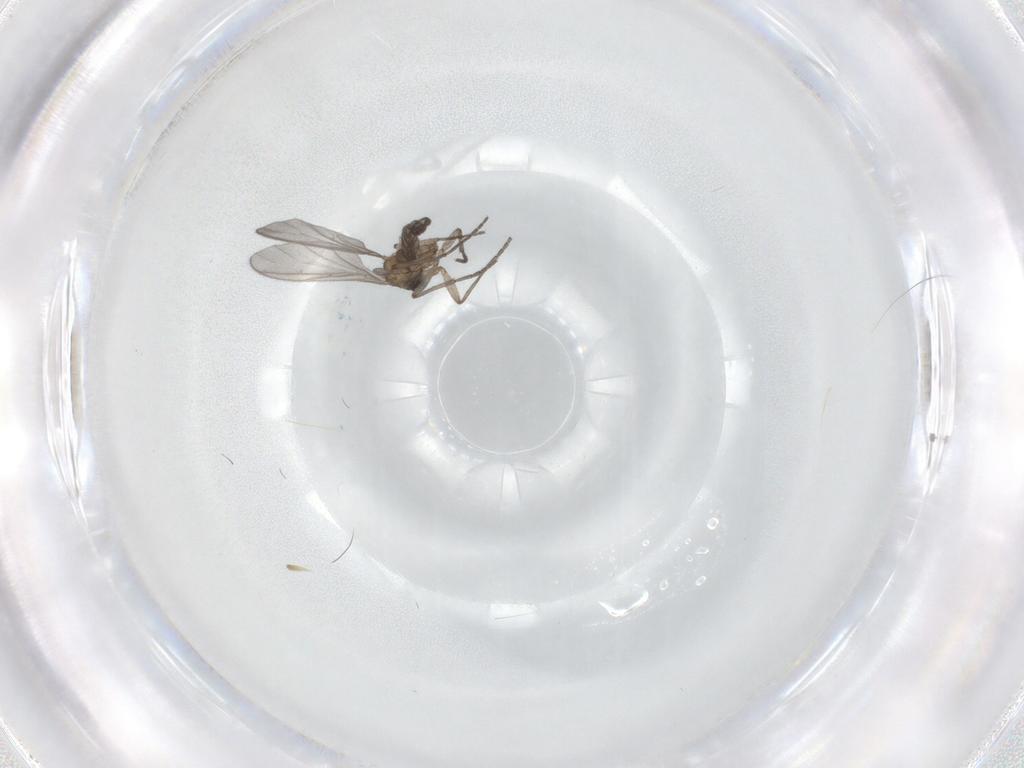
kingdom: Animalia
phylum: Arthropoda
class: Insecta
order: Diptera
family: Sciaridae
